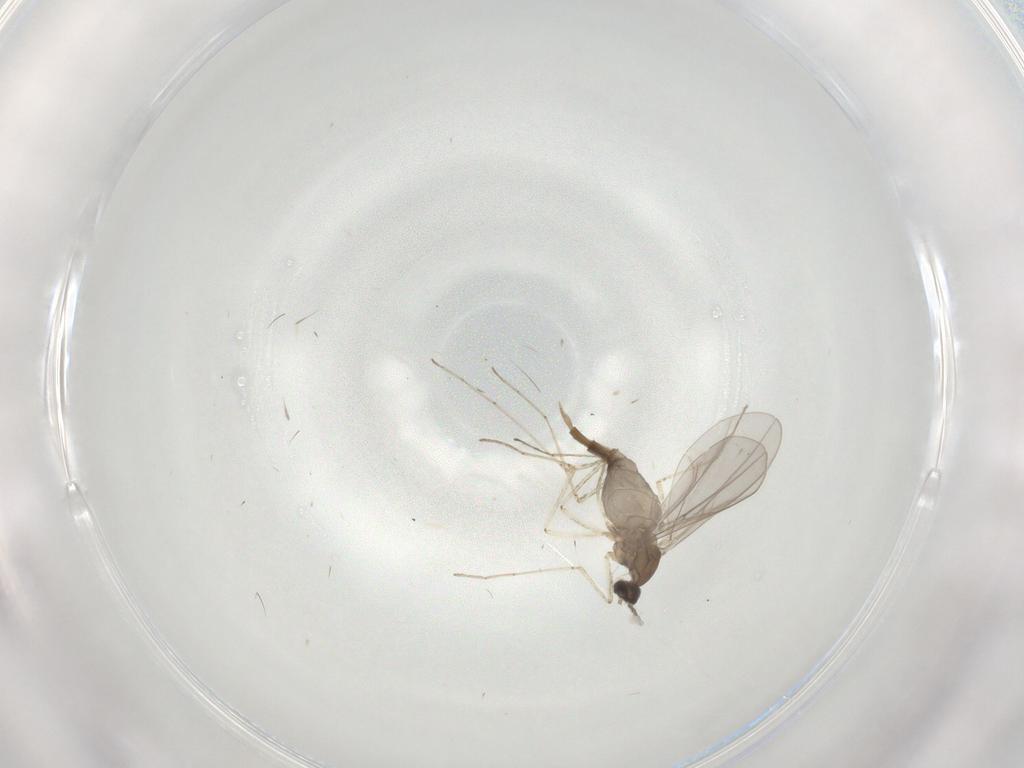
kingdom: Animalia
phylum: Arthropoda
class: Insecta
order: Diptera
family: Cecidomyiidae
